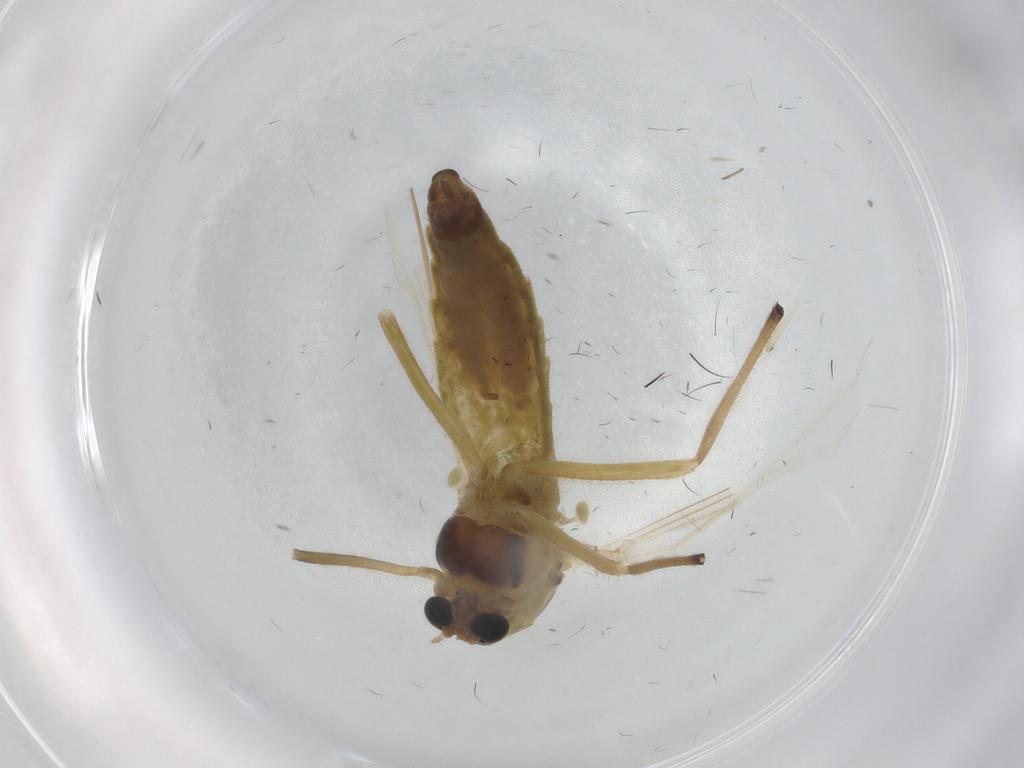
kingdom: Animalia
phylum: Arthropoda
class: Insecta
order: Diptera
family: Chironomidae
